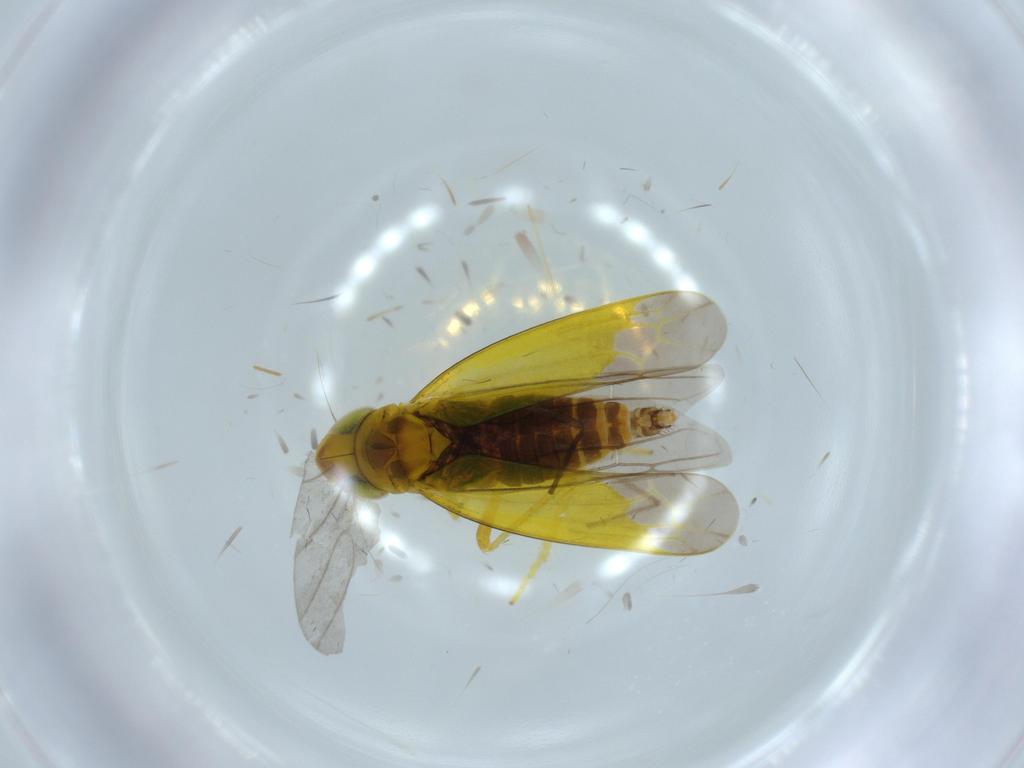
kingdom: Animalia
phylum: Arthropoda
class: Insecta
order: Hemiptera
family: Cicadellidae
